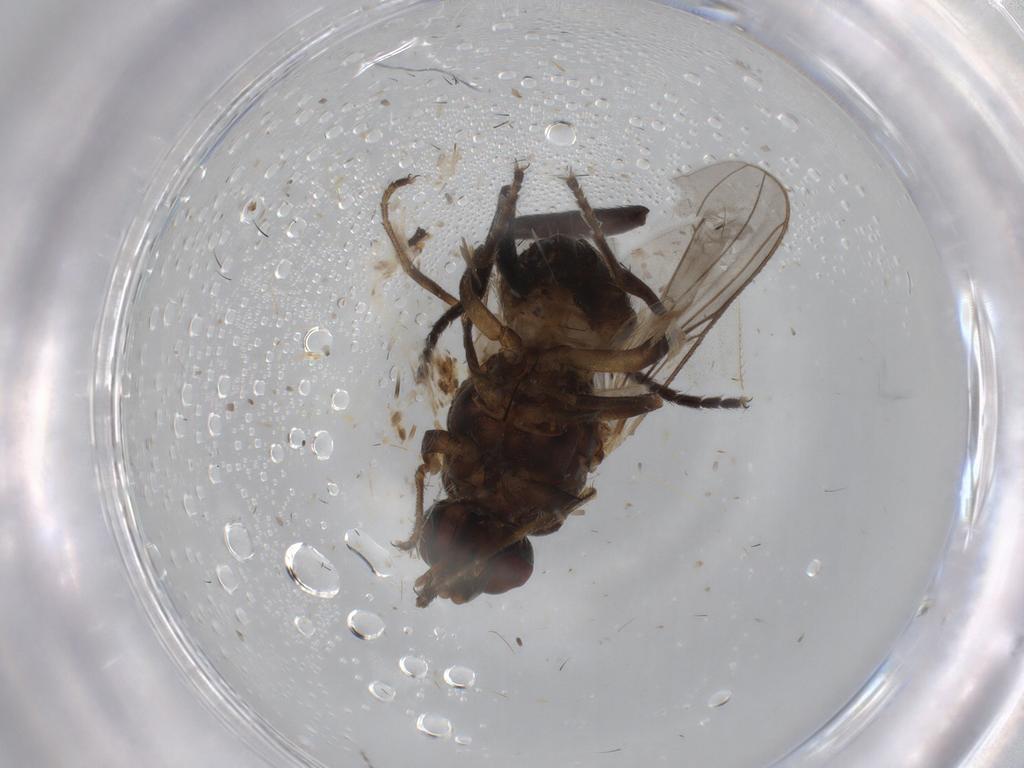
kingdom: Animalia
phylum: Arthropoda
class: Insecta
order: Diptera
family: Muscidae
